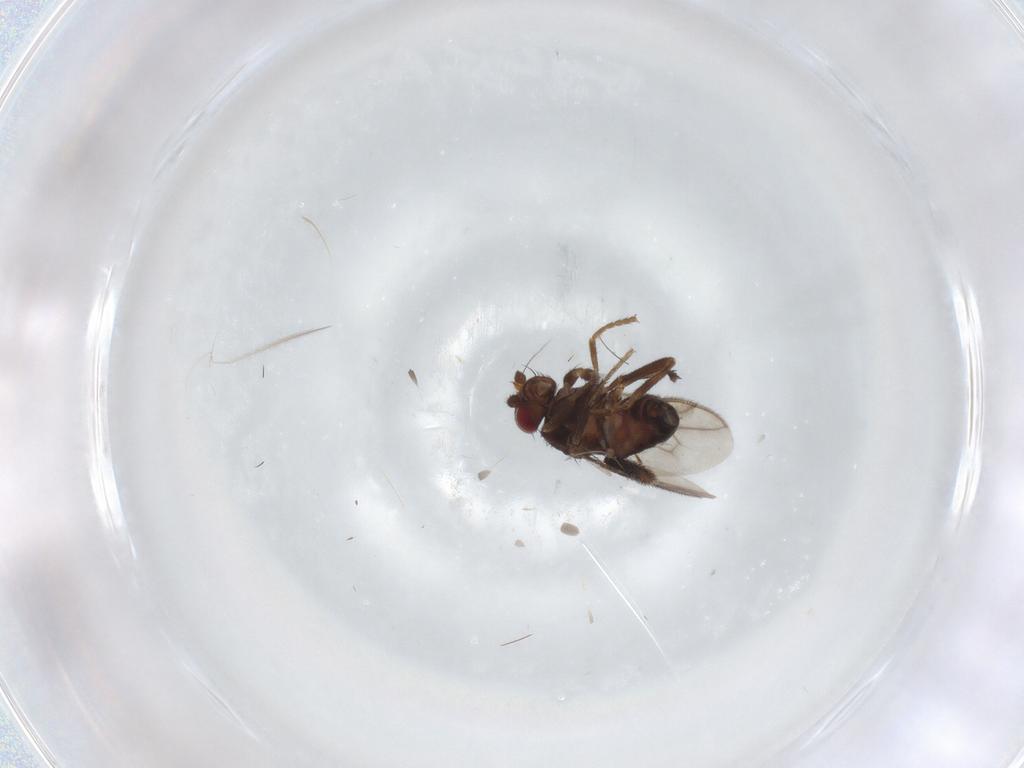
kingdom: Animalia
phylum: Arthropoda
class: Insecta
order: Diptera
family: Sphaeroceridae
